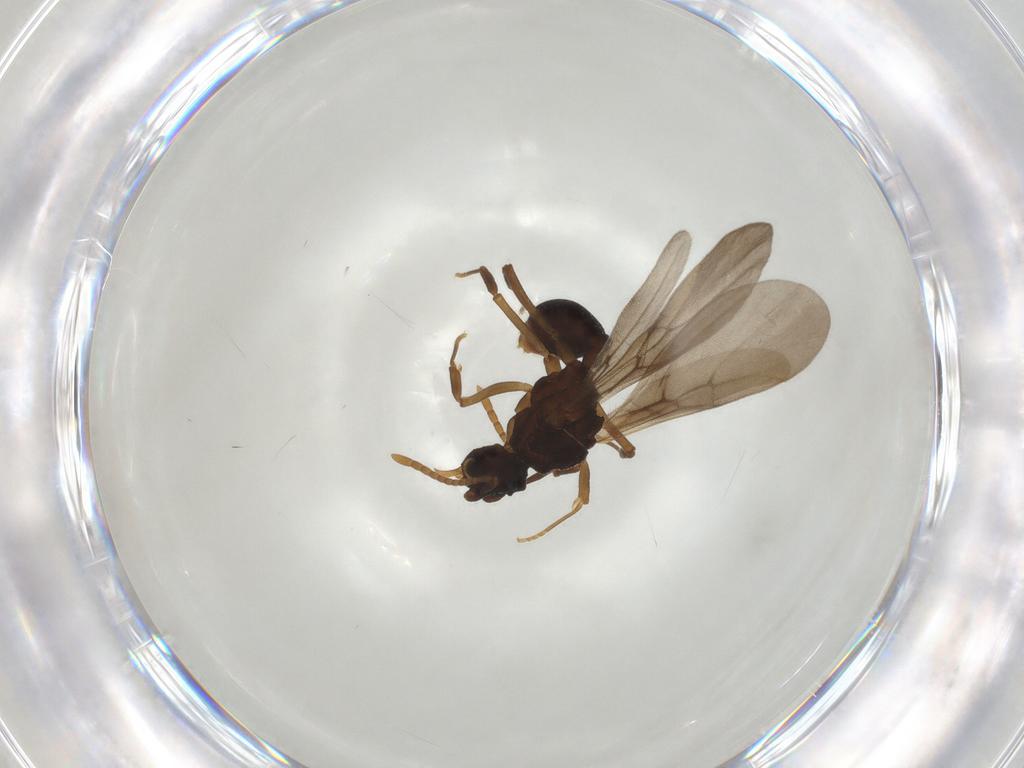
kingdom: Animalia
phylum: Arthropoda
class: Insecta
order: Hymenoptera
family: Formicidae
